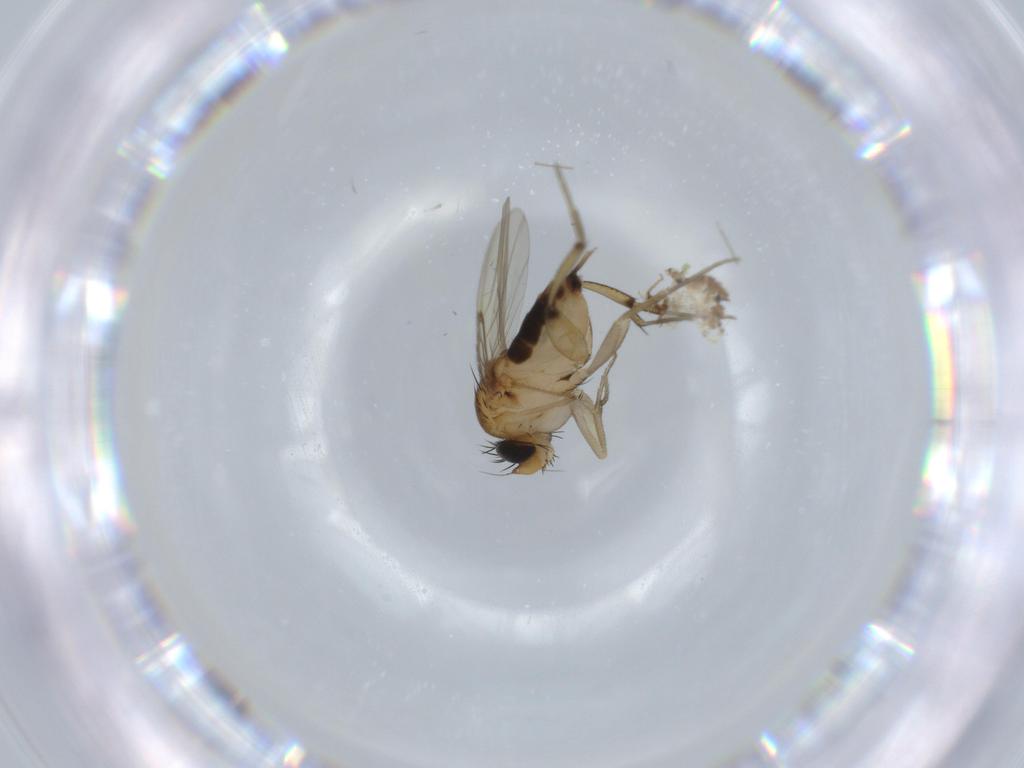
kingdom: Animalia
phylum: Arthropoda
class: Insecta
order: Diptera
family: Chironomidae
